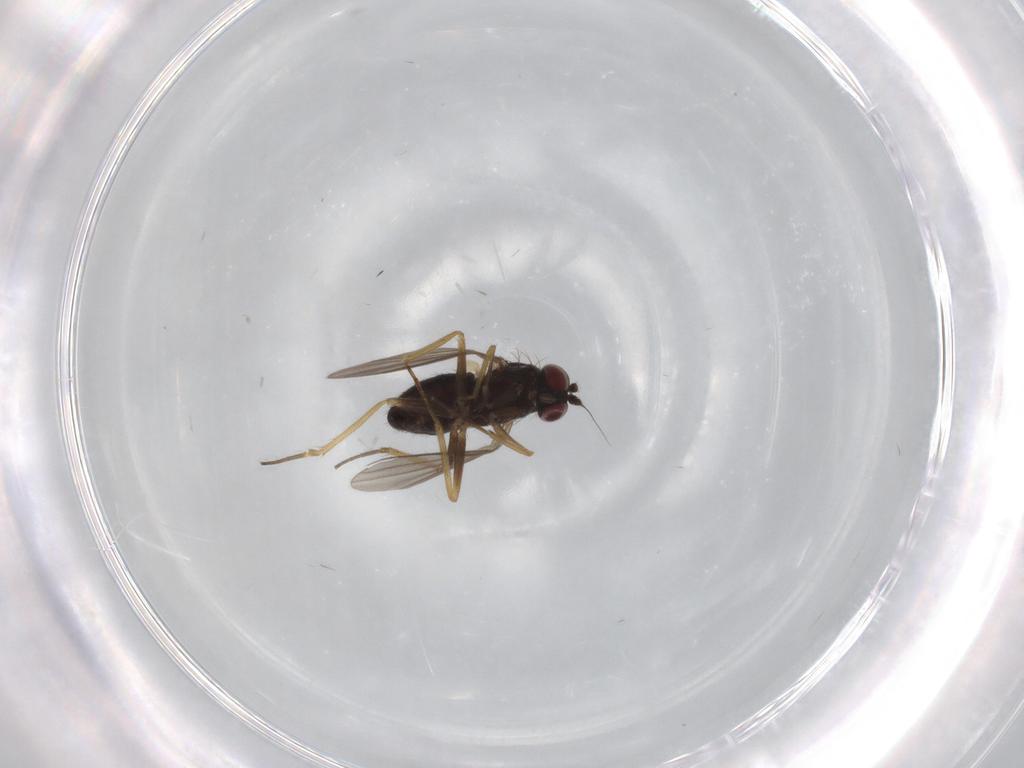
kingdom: Animalia
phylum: Arthropoda
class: Insecta
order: Diptera
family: Dolichopodidae
